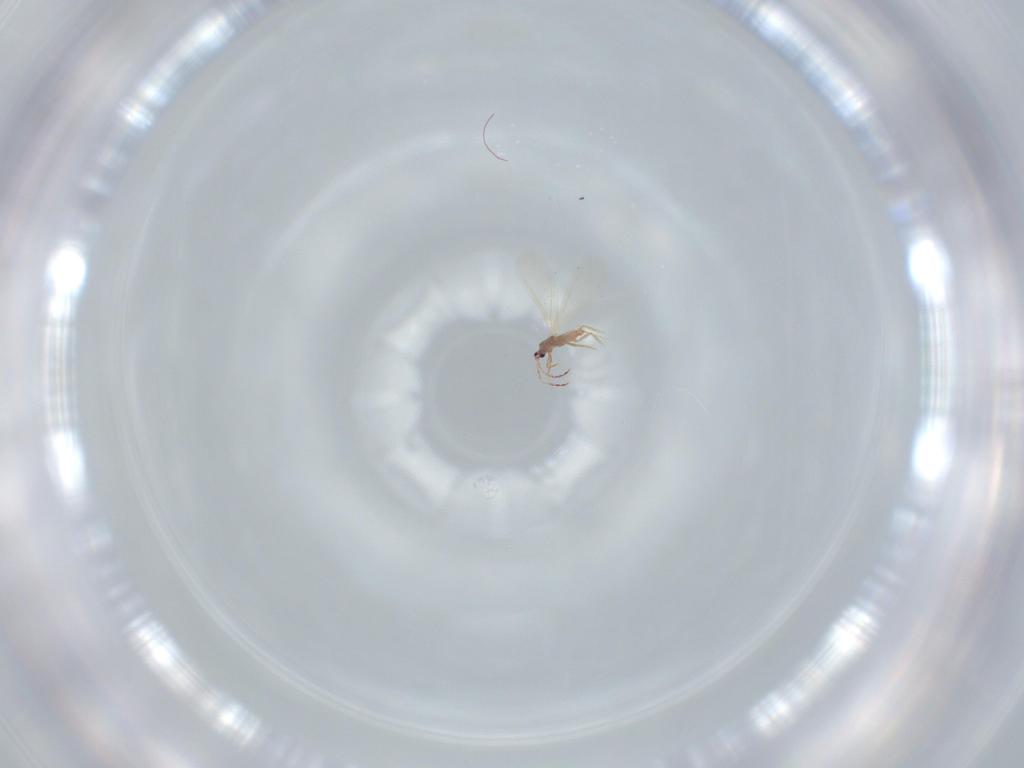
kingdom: Animalia
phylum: Arthropoda
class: Insecta
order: Hemiptera
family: Diaspididae
